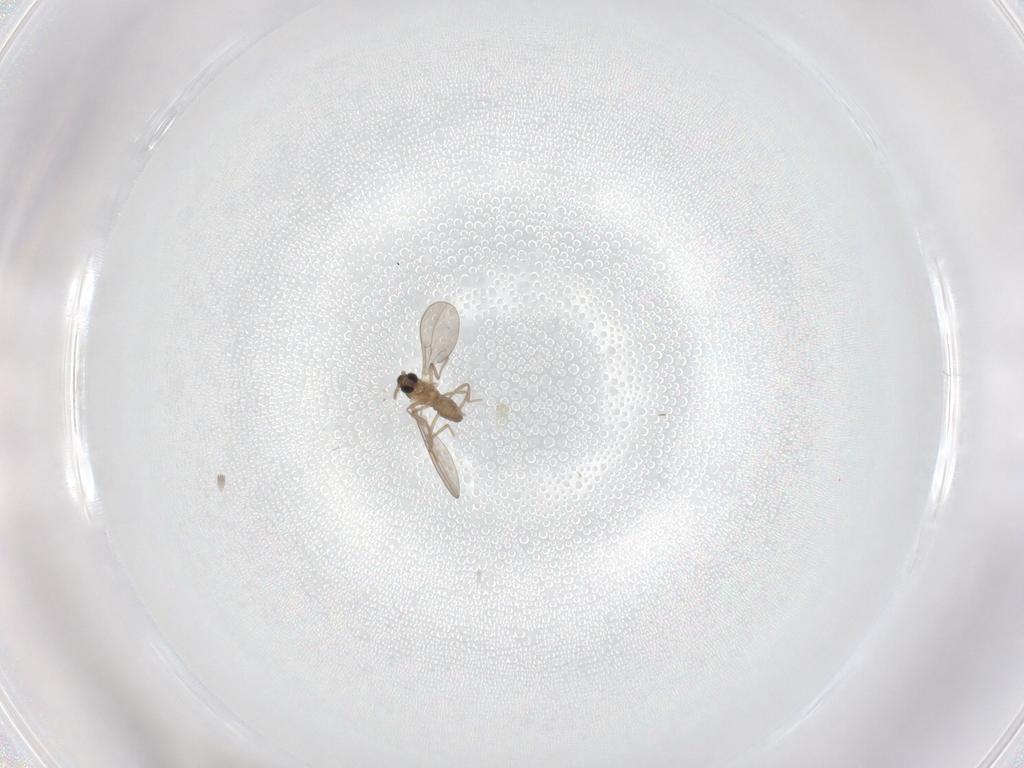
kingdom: Animalia
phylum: Arthropoda
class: Insecta
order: Diptera
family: Cecidomyiidae
